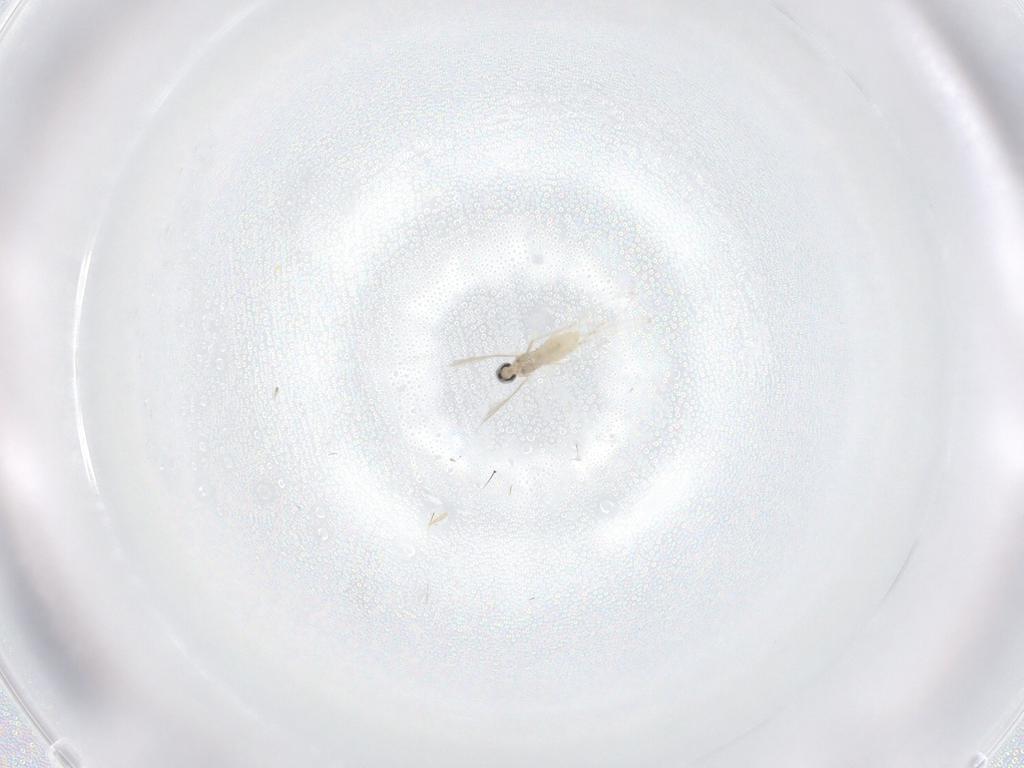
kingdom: Animalia
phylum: Arthropoda
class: Insecta
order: Diptera
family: Cecidomyiidae
